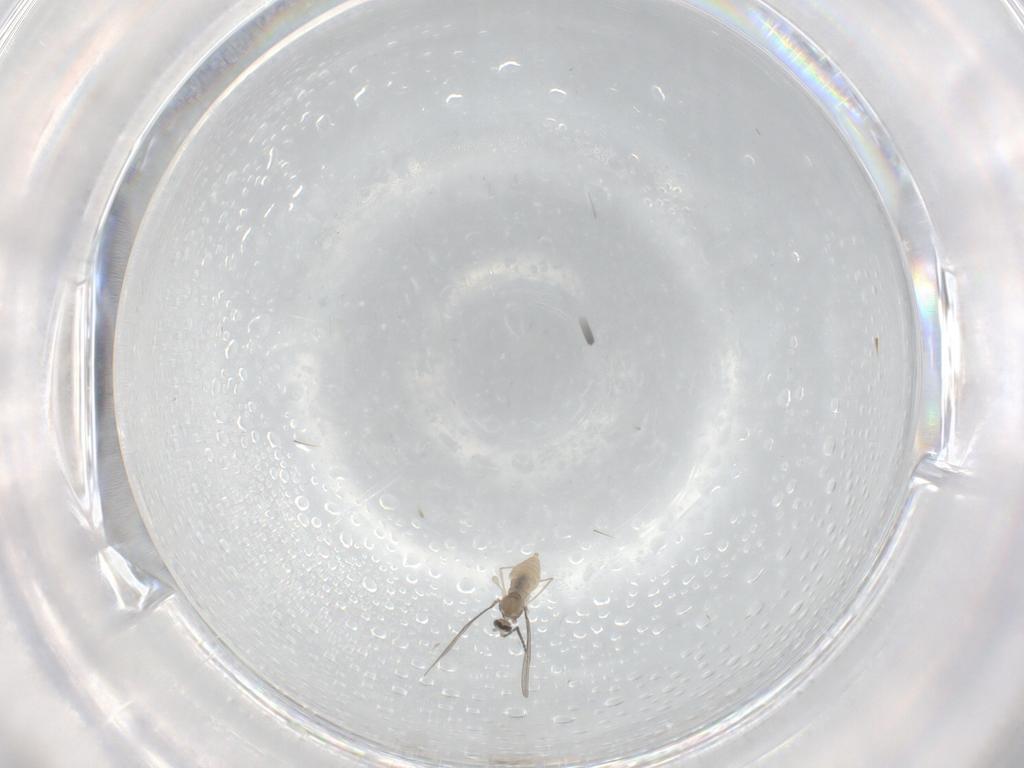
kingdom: Animalia
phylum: Arthropoda
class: Insecta
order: Diptera
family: Cecidomyiidae
